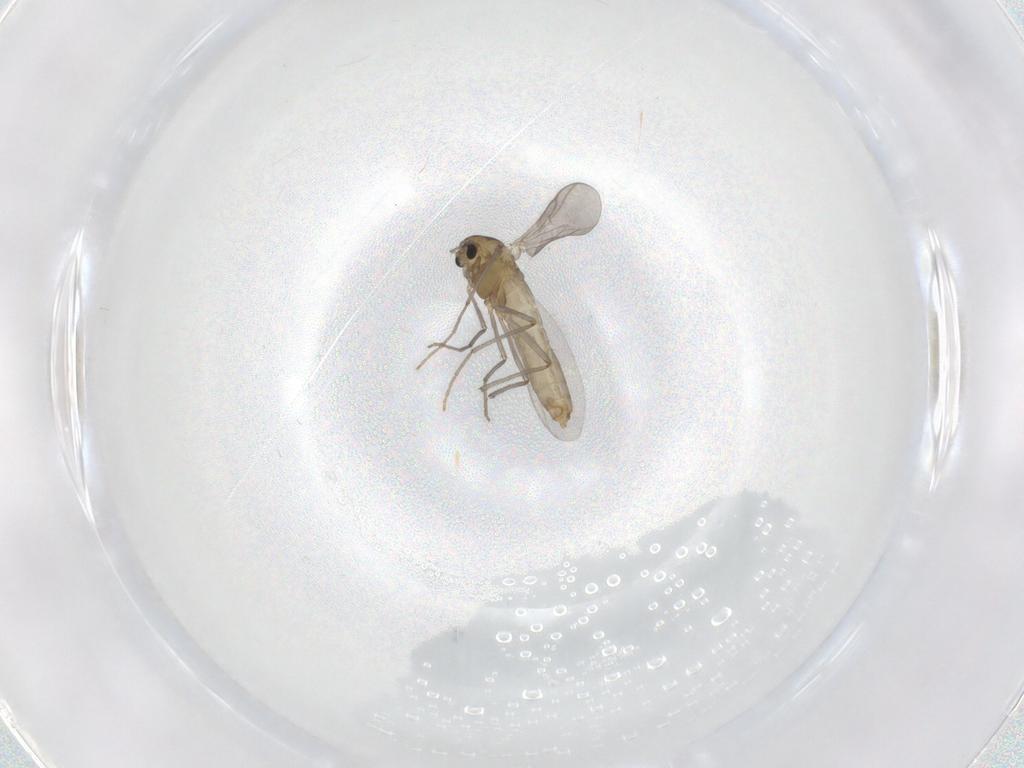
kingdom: Animalia
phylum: Arthropoda
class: Insecta
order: Diptera
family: Chironomidae
